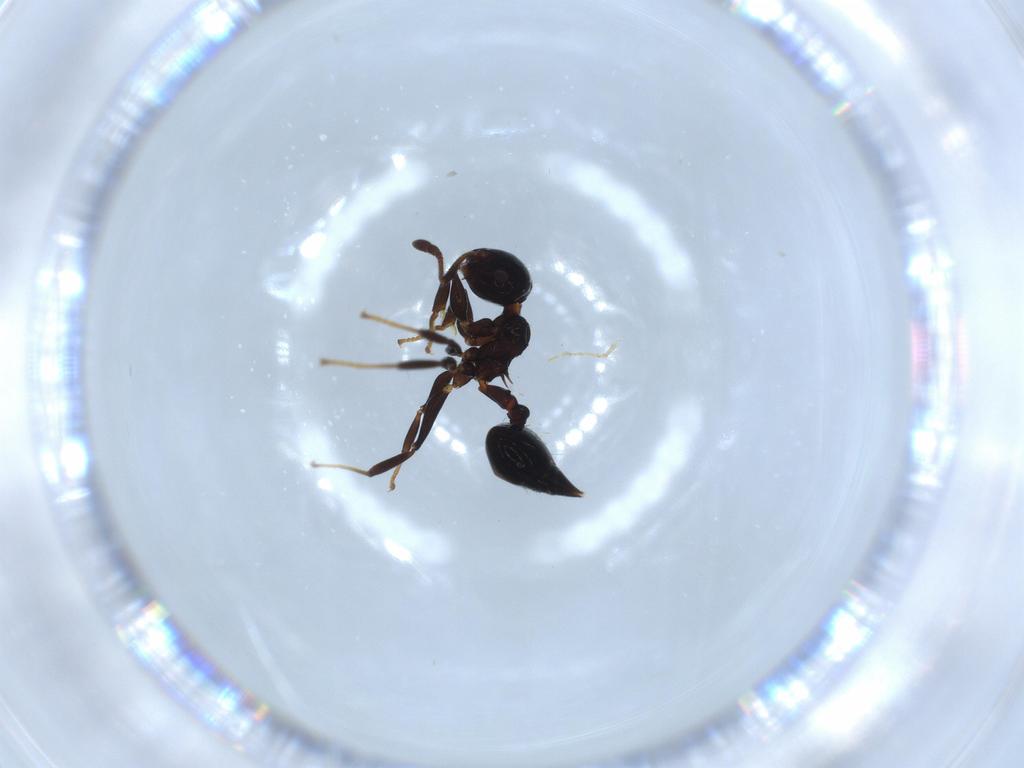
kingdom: Animalia
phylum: Arthropoda
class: Insecta
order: Hymenoptera
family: Formicidae
